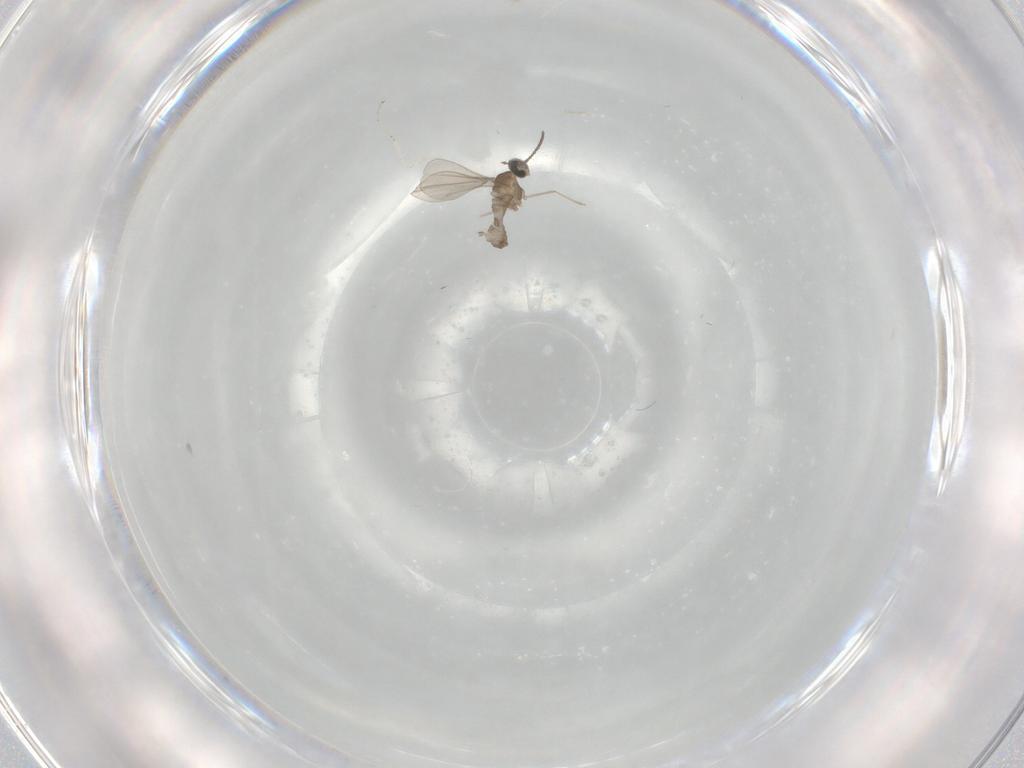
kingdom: Animalia
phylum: Arthropoda
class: Insecta
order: Diptera
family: Cecidomyiidae
